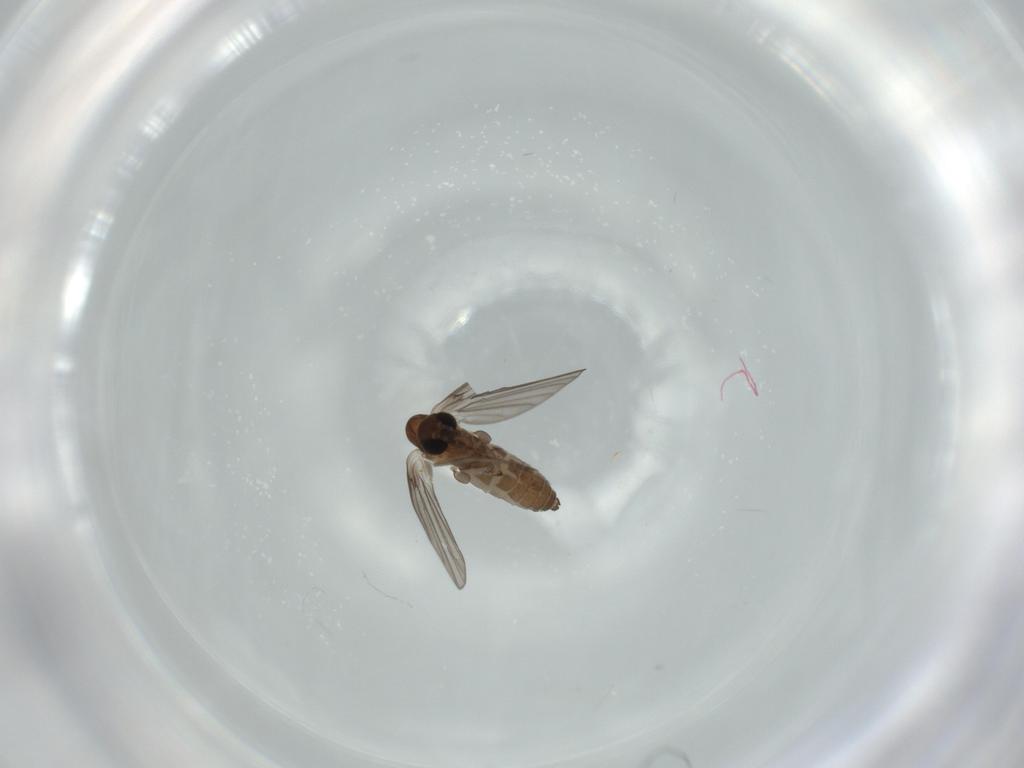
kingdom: Animalia
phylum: Arthropoda
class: Insecta
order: Diptera
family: Psychodidae
